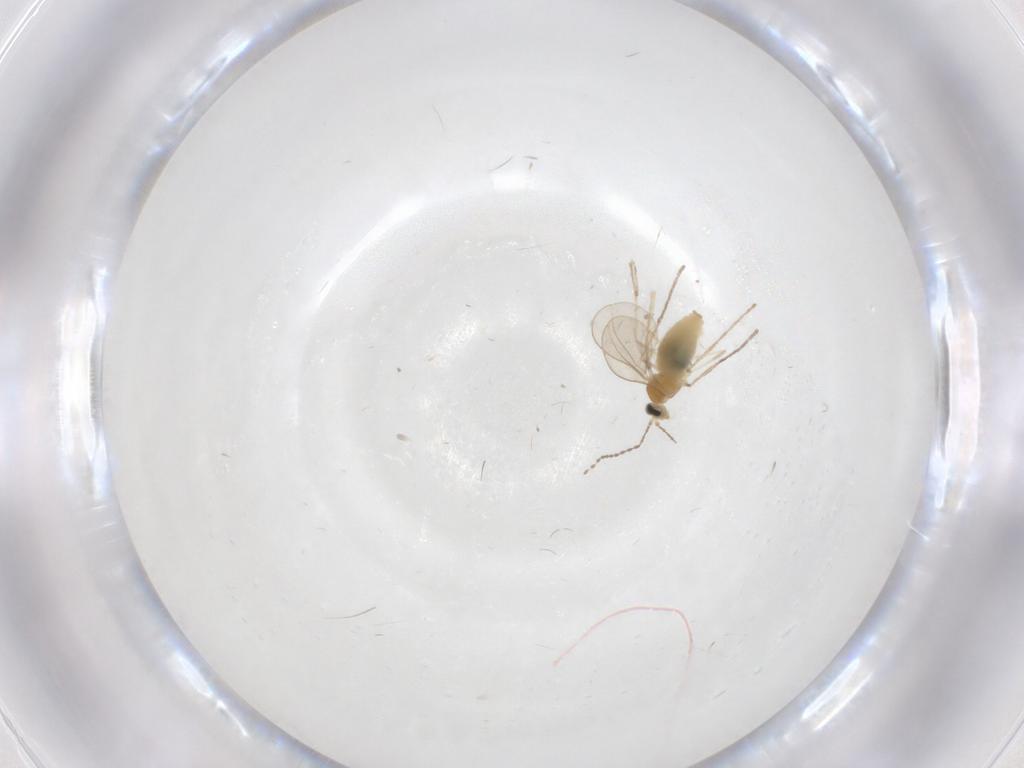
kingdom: Animalia
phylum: Arthropoda
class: Insecta
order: Diptera
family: Cecidomyiidae
